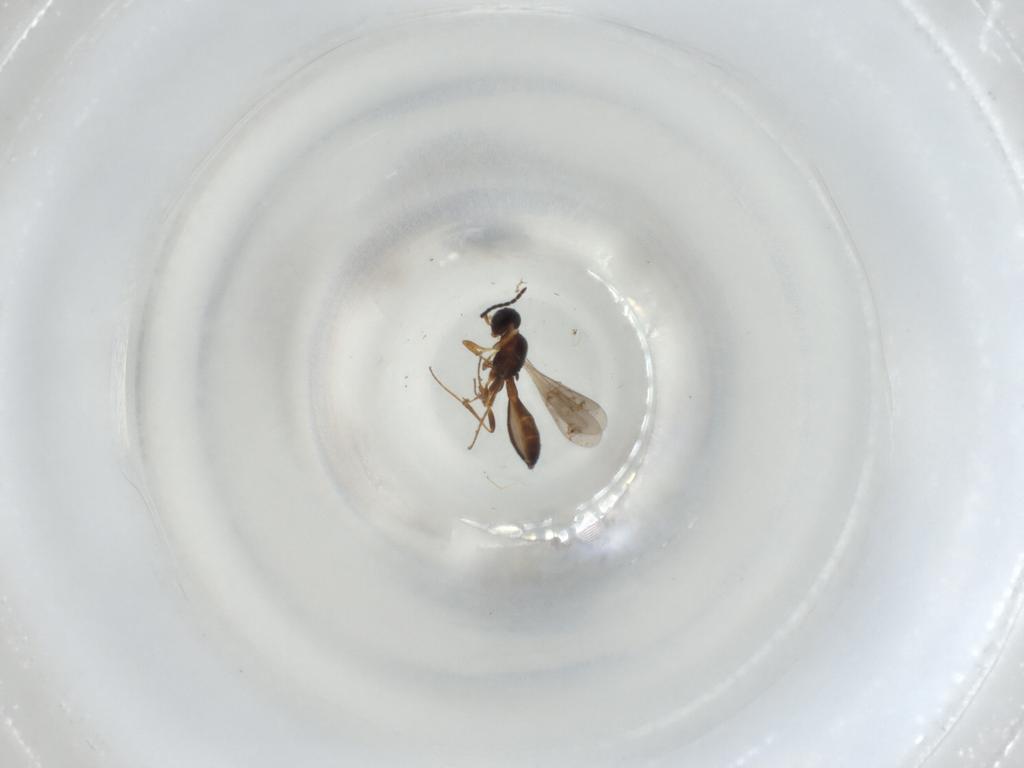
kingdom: Animalia
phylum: Arthropoda
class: Insecta
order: Hymenoptera
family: Scelionidae
